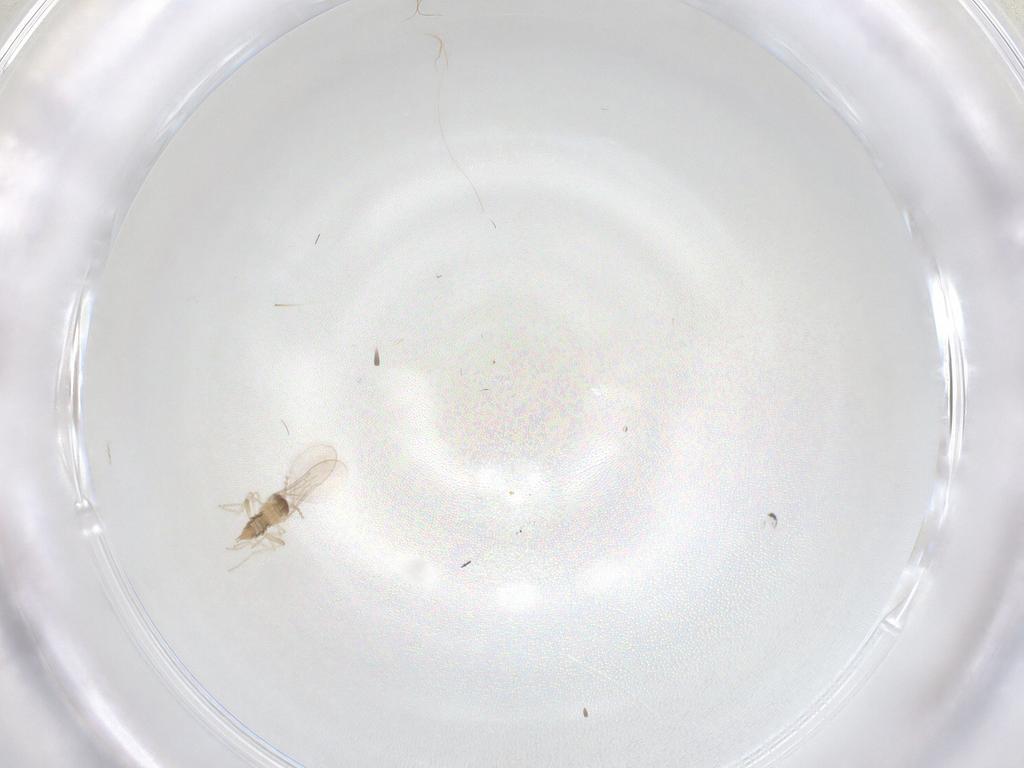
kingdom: Animalia
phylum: Arthropoda
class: Insecta
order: Diptera
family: Cecidomyiidae
